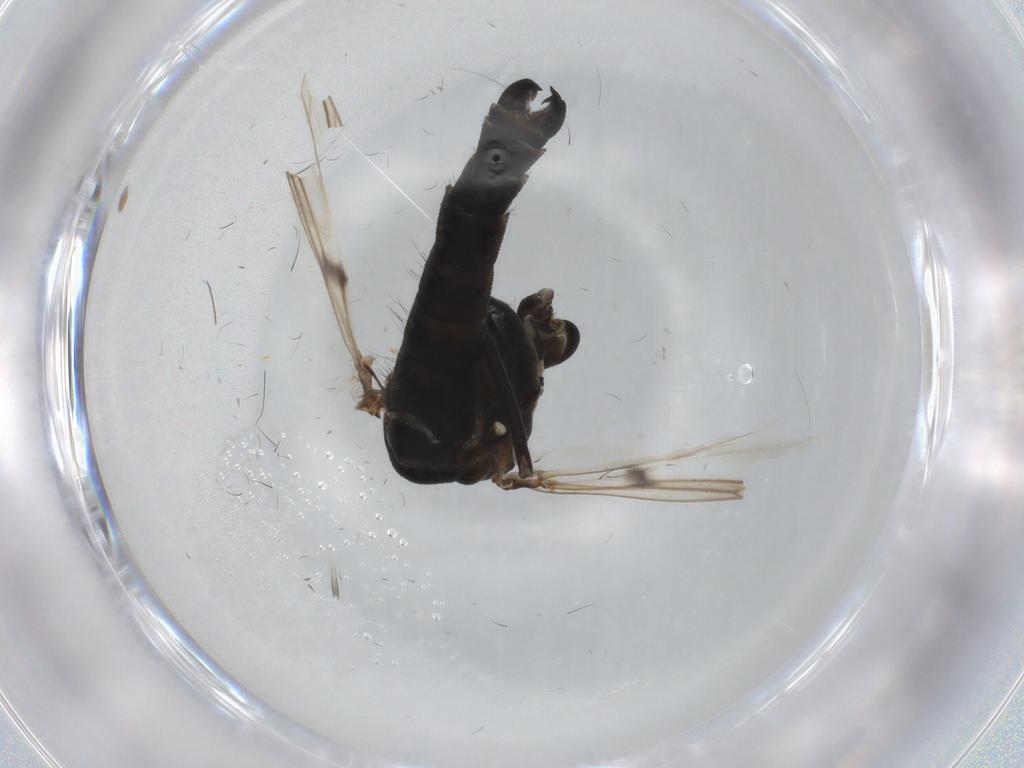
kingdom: Animalia
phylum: Arthropoda
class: Insecta
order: Diptera
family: Chironomidae
